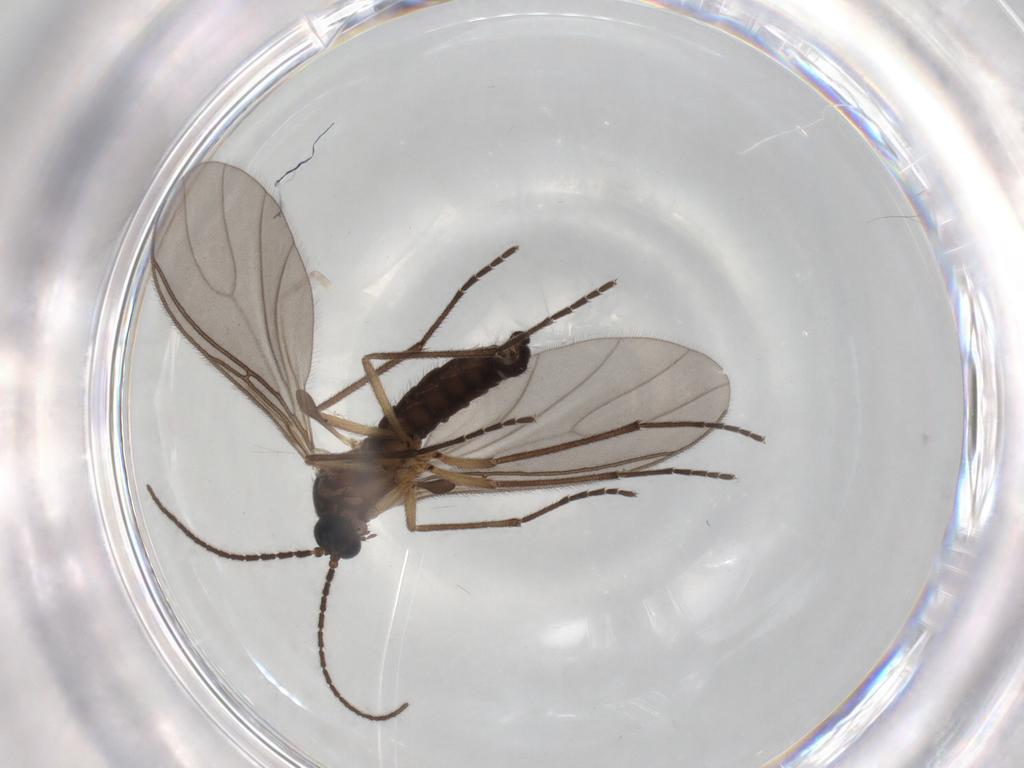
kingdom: Animalia
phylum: Arthropoda
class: Insecta
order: Diptera
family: Sciaridae
